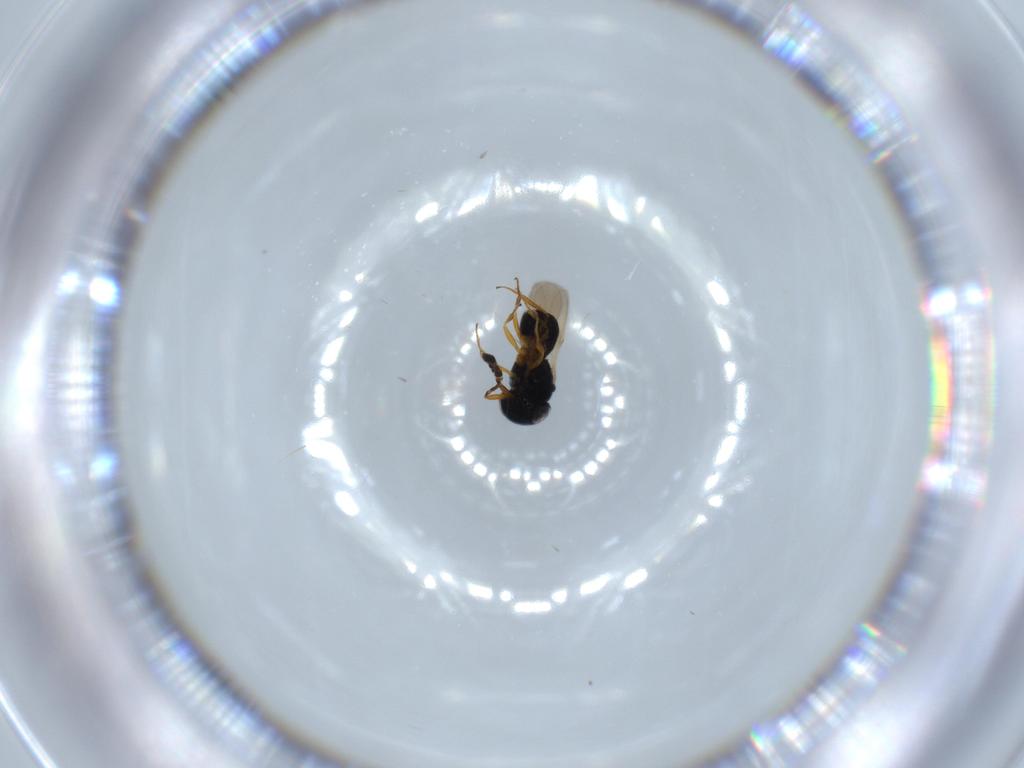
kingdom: Animalia
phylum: Arthropoda
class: Insecta
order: Hymenoptera
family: Scelionidae
